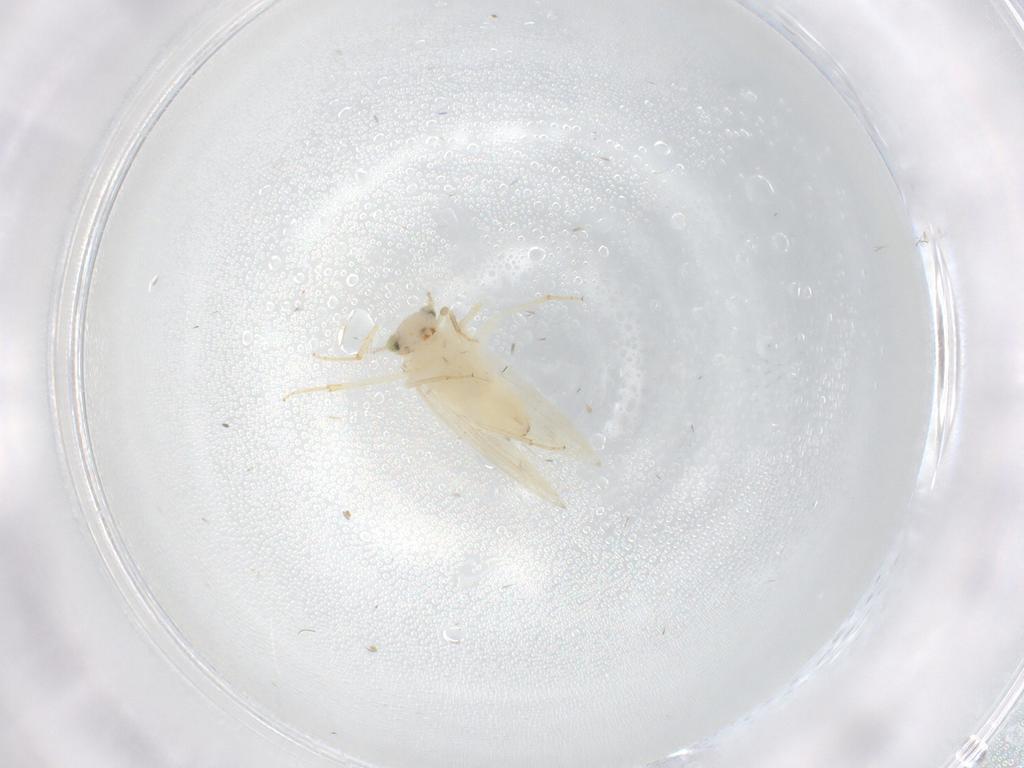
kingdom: Animalia
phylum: Arthropoda
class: Insecta
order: Psocodea
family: Lepidopsocidae
